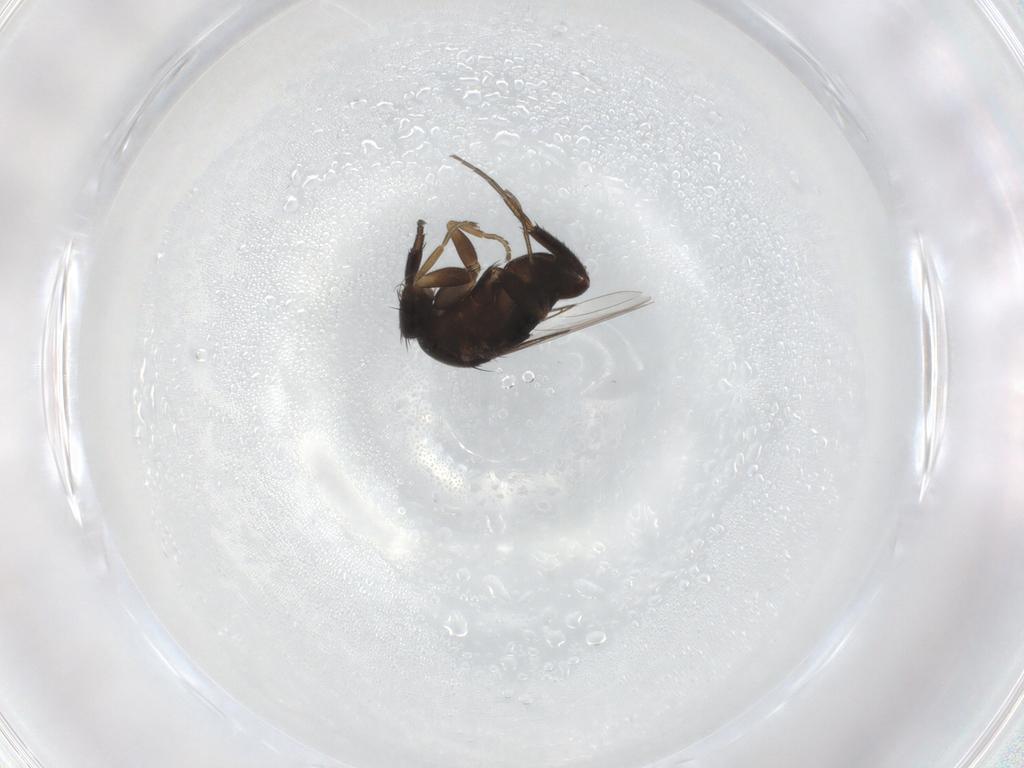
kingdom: Animalia
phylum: Arthropoda
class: Insecta
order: Diptera
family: Phoridae
